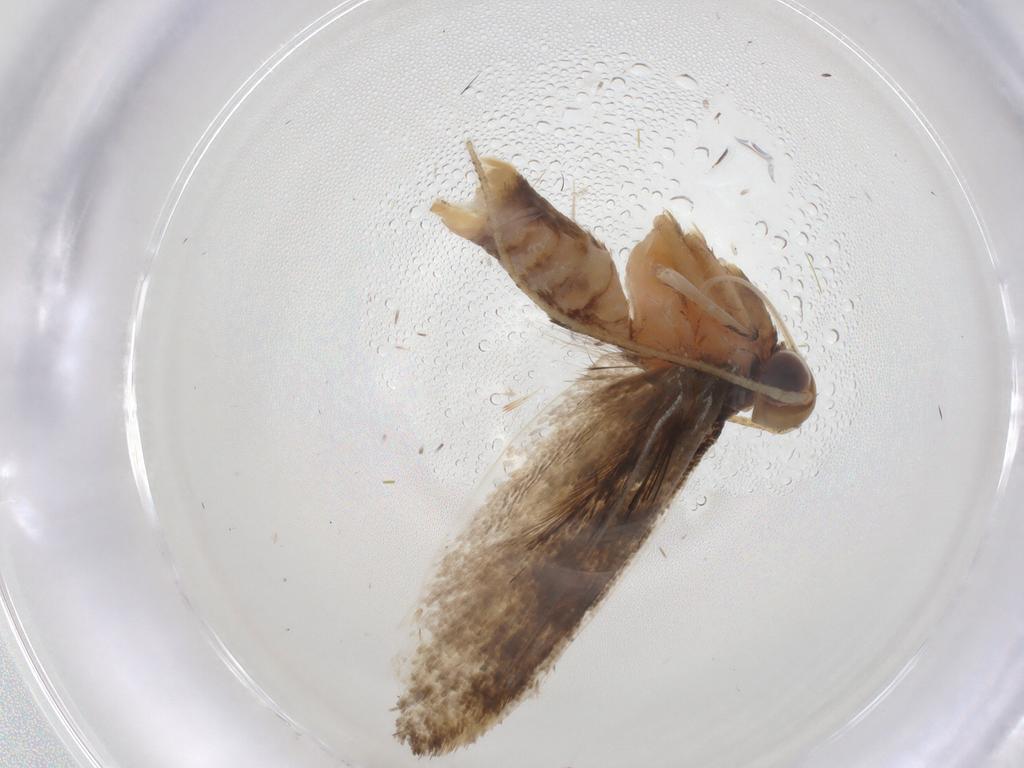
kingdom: Animalia
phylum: Arthropoda
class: Insecta
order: Lepidoptera
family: Gelechiidae
